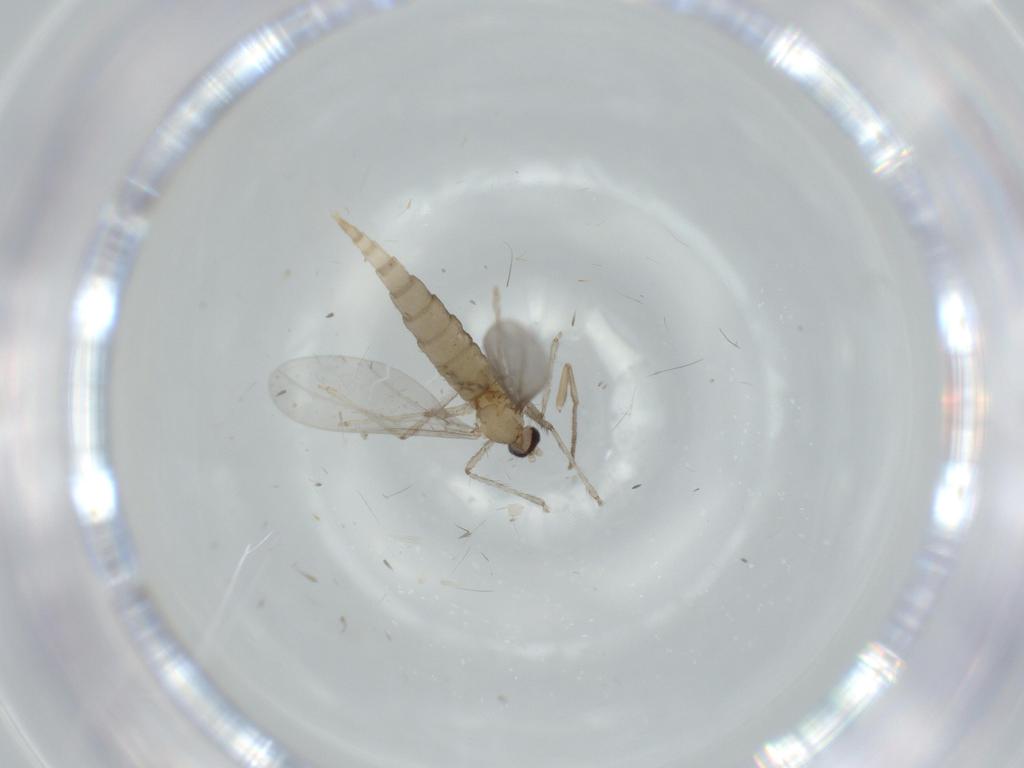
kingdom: Animalia
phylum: Arthropoda
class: Insecta
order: Diptera
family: Cecidomyiidae
